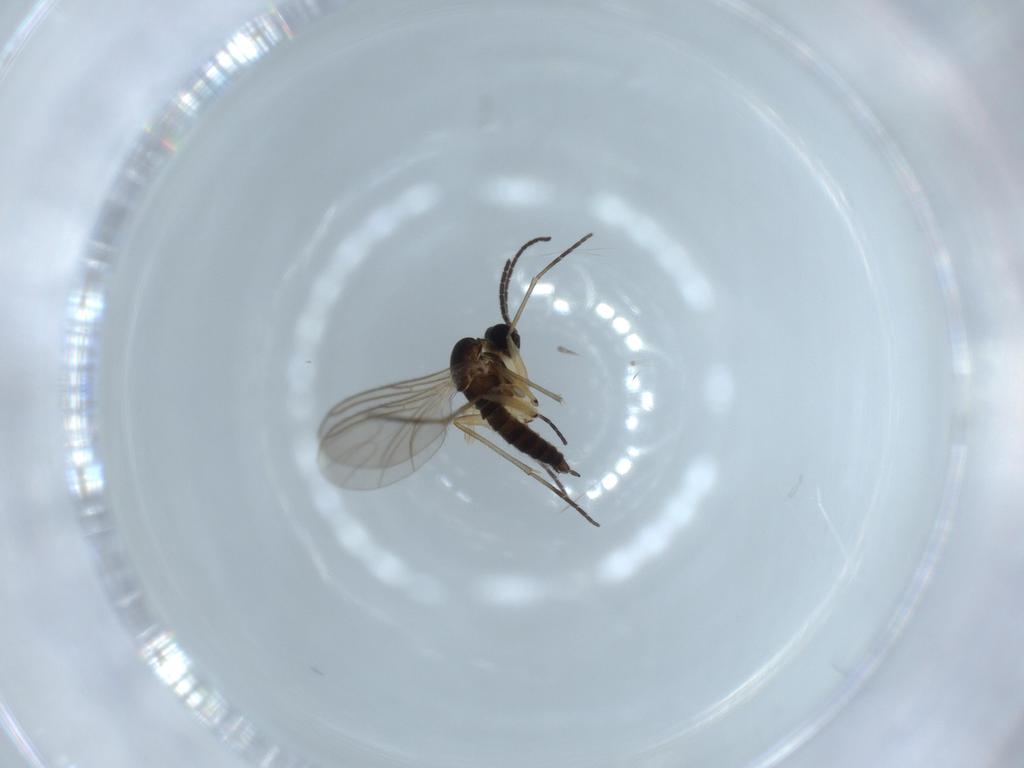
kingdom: Animalia
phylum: Arthropoda
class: Insecta
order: Diptera
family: Sciaridae
